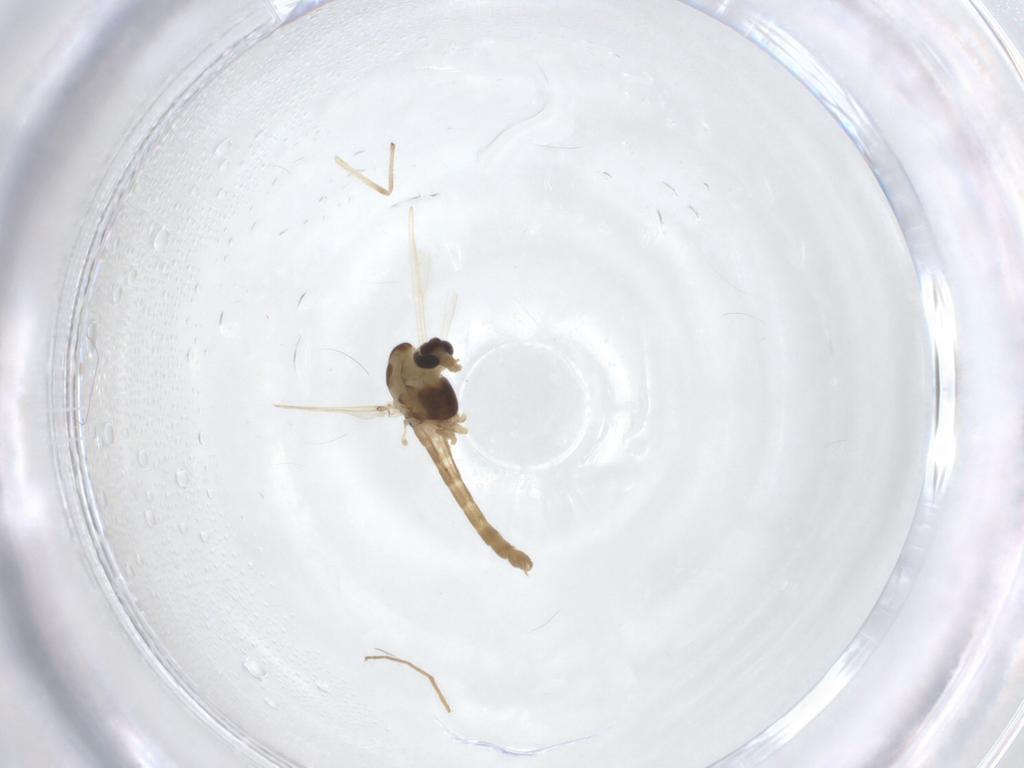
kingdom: Animalia
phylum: Arthropoda
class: Insecta
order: Diptera
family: Chironomidae
